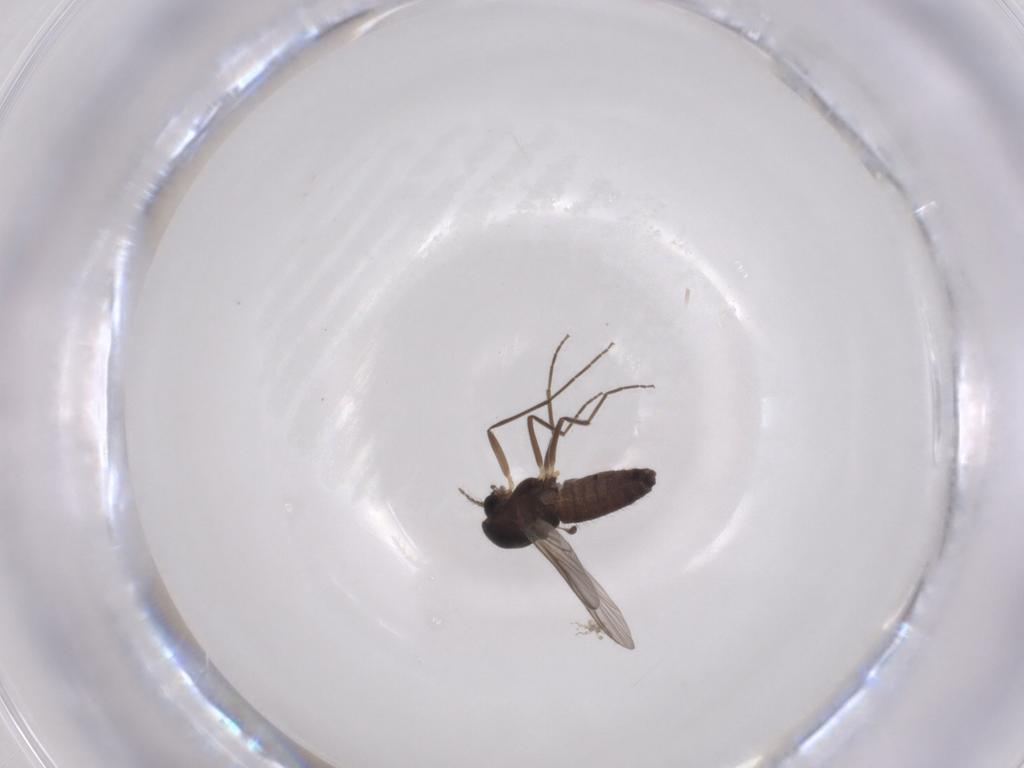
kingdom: Animalia
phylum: Arthropoda
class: Insecta
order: Diptera
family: Chironomidae
